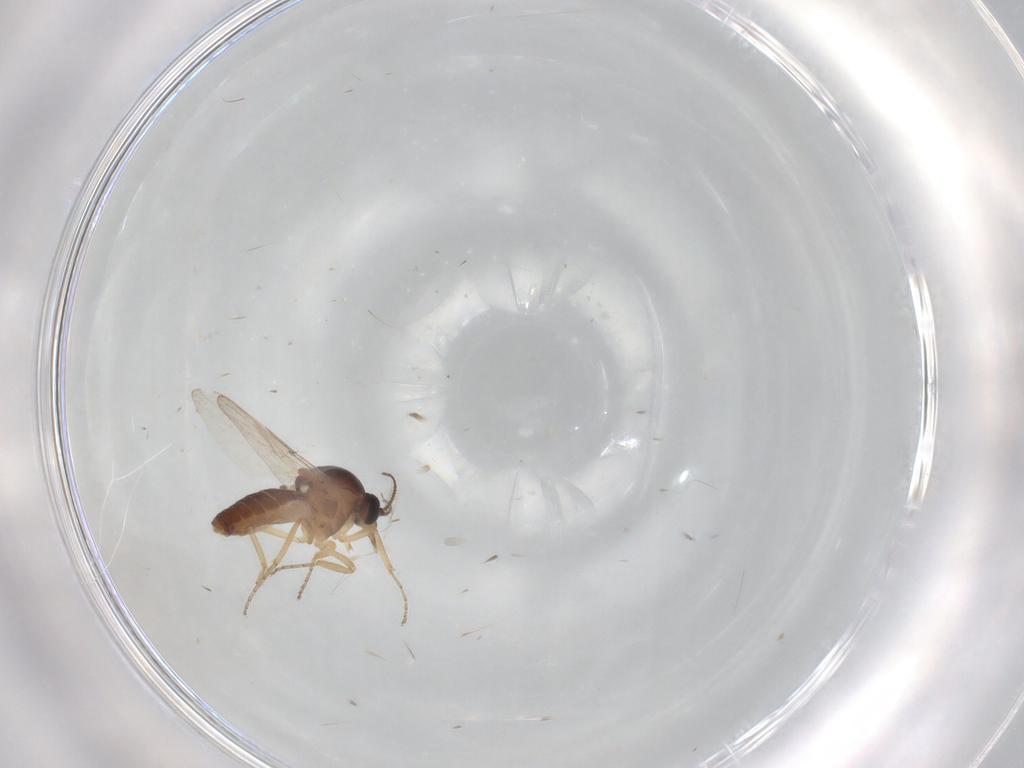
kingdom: Animalia
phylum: Arthropoda
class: Insecta
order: Diptera
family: Ceratopogonidae
